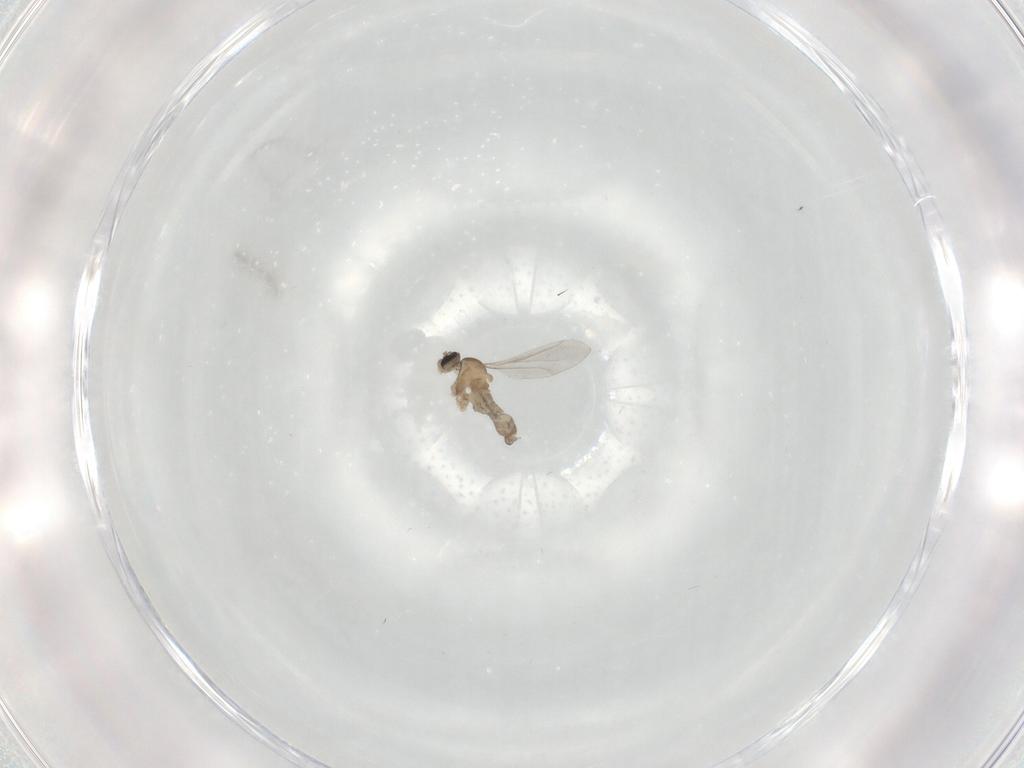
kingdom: Animalia
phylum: Arthropoda
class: Insecta
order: Diptera
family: Cecidomyiidae
